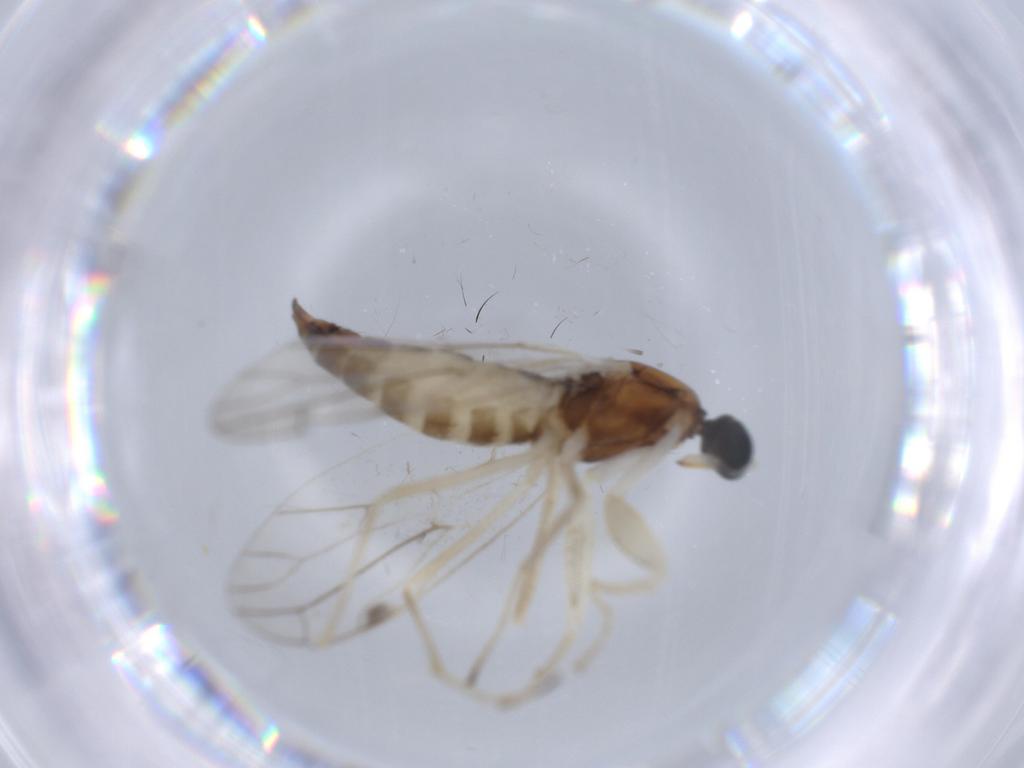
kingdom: Animalia
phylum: Arthropoda
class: Insecta
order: Diptera
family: Empididae
